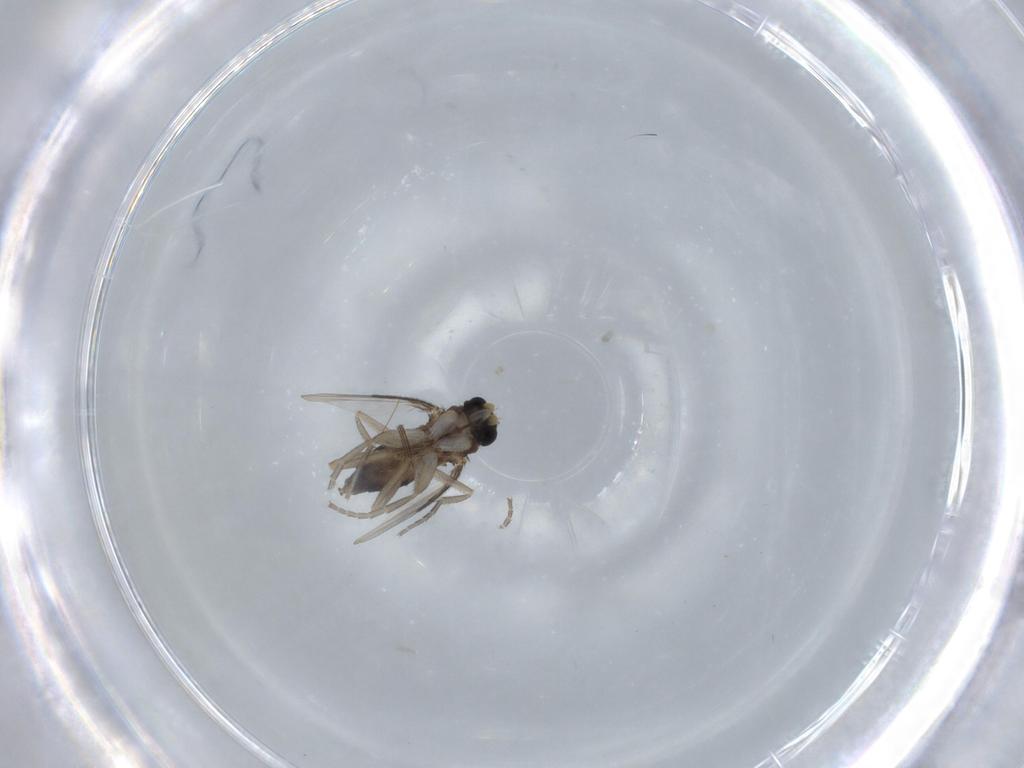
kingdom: Animalia
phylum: Arthropoda
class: Insecta
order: Diptera
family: Phoridae
